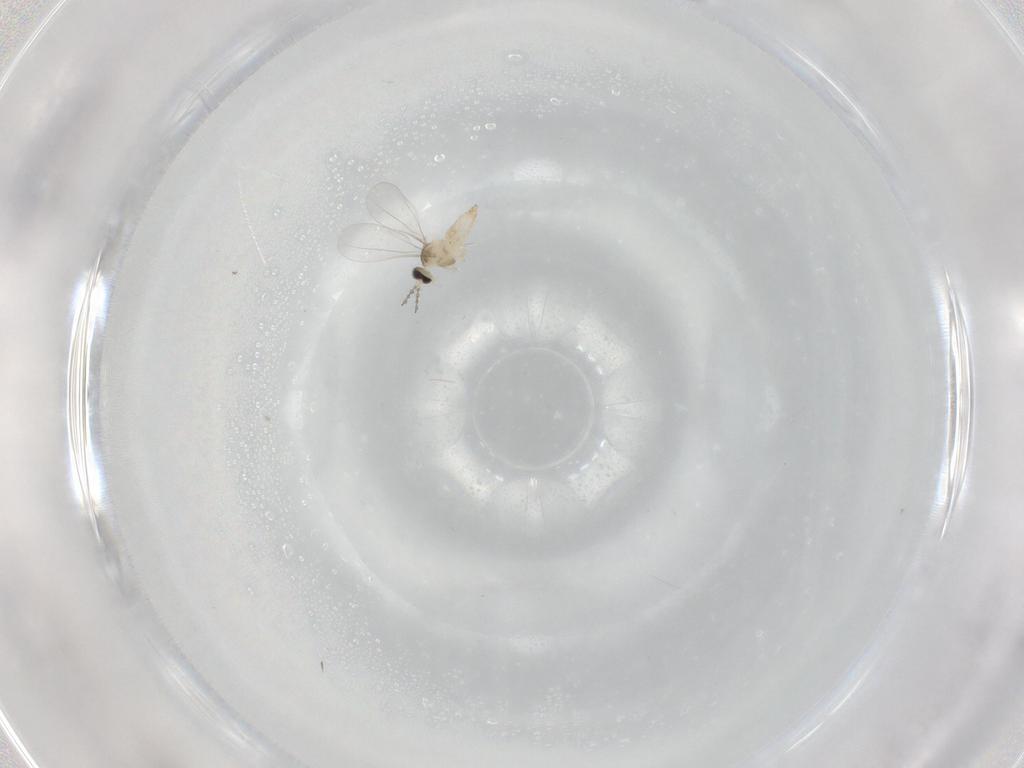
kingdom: Animalia
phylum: Arthropoda
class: Insecta
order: Diptera
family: Cecidomyiidae
